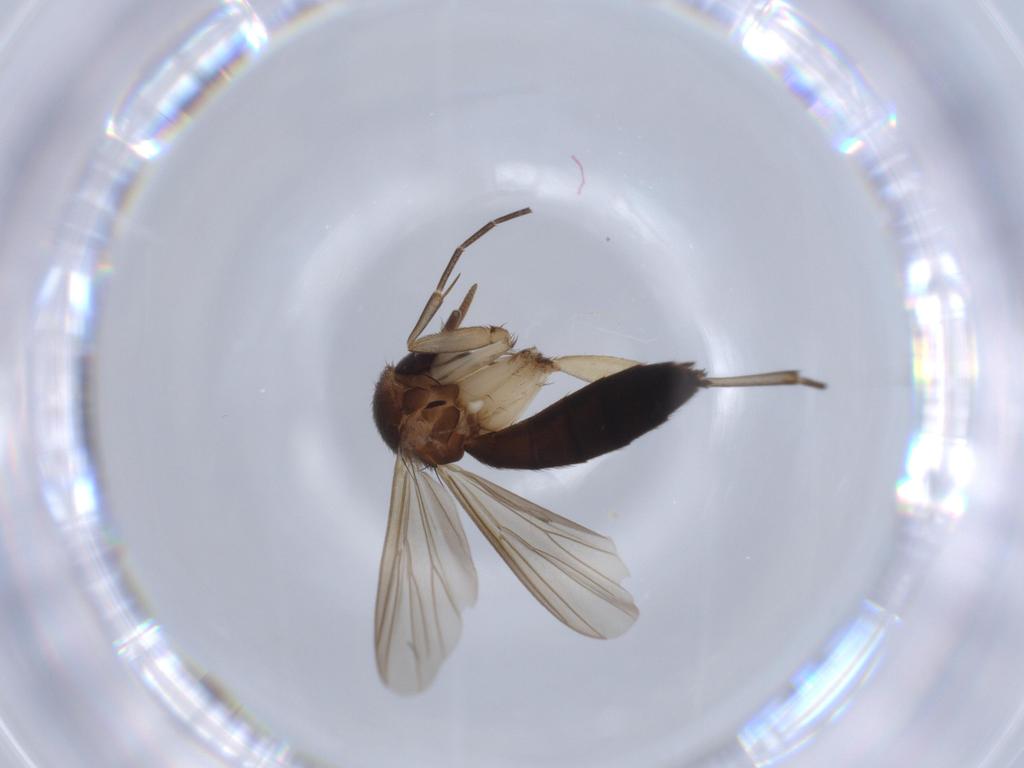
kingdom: Animalia
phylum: Arthropoda
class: Insecta
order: Diptera
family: Mycetophilidae
